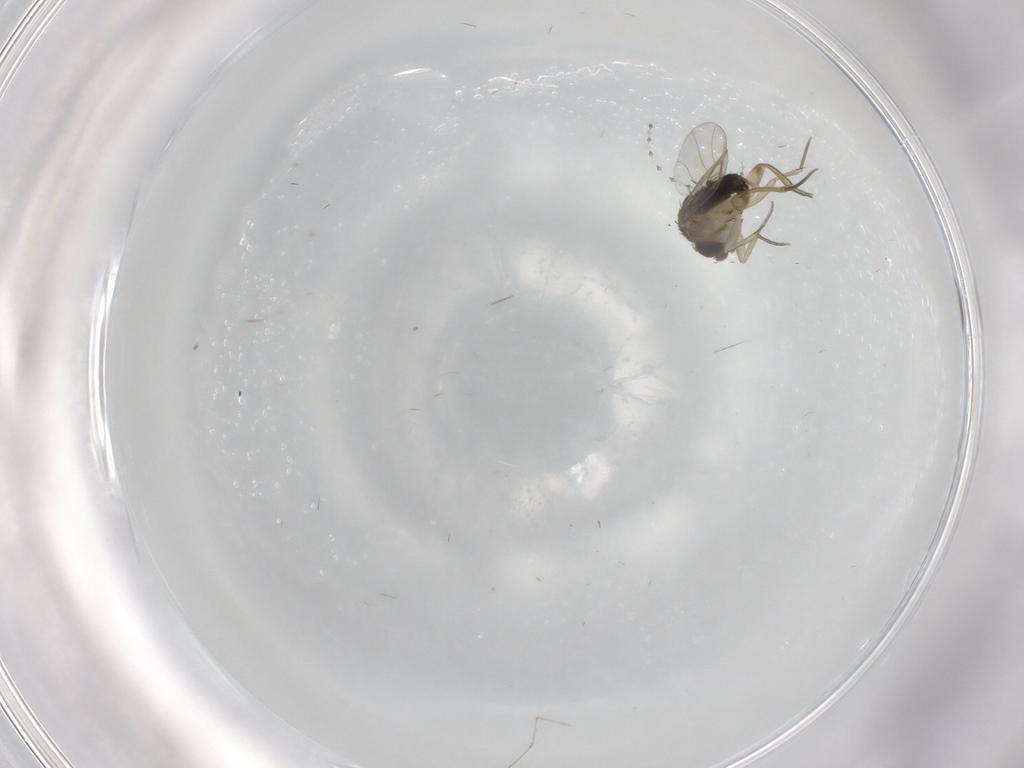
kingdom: Animalia
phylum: Arthropoda
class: Insecta
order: Diptera
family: Phoridae
